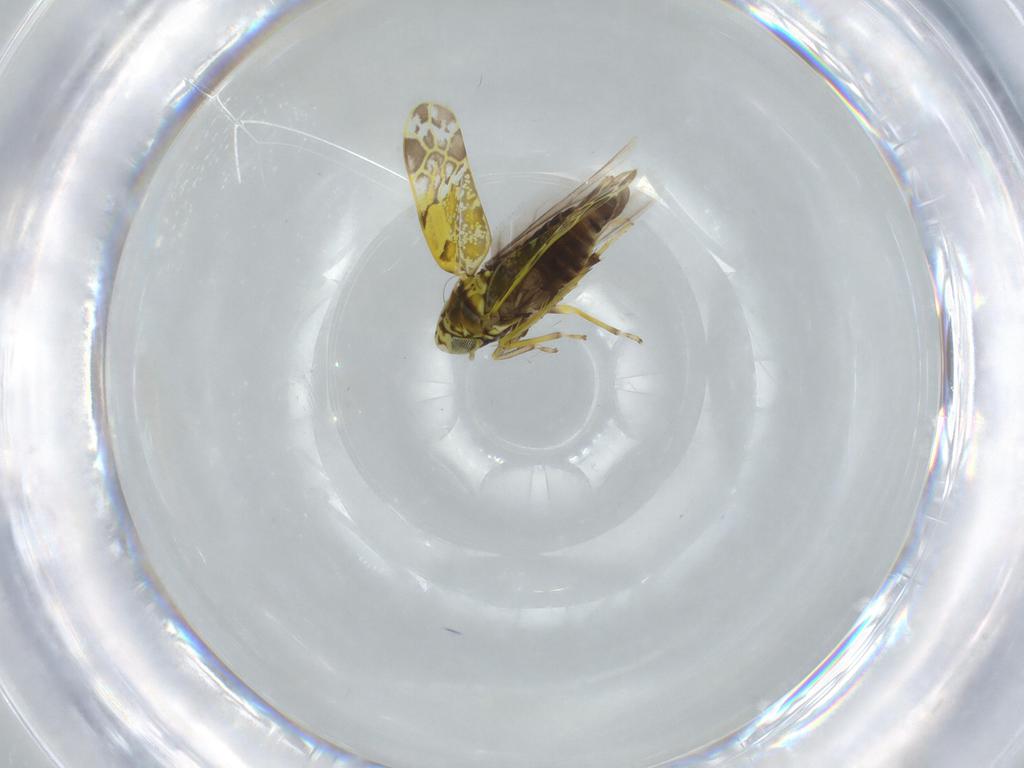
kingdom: Animalia
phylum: Arthropoda
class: Insecta
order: Hemiptera
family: Cicadellidae
